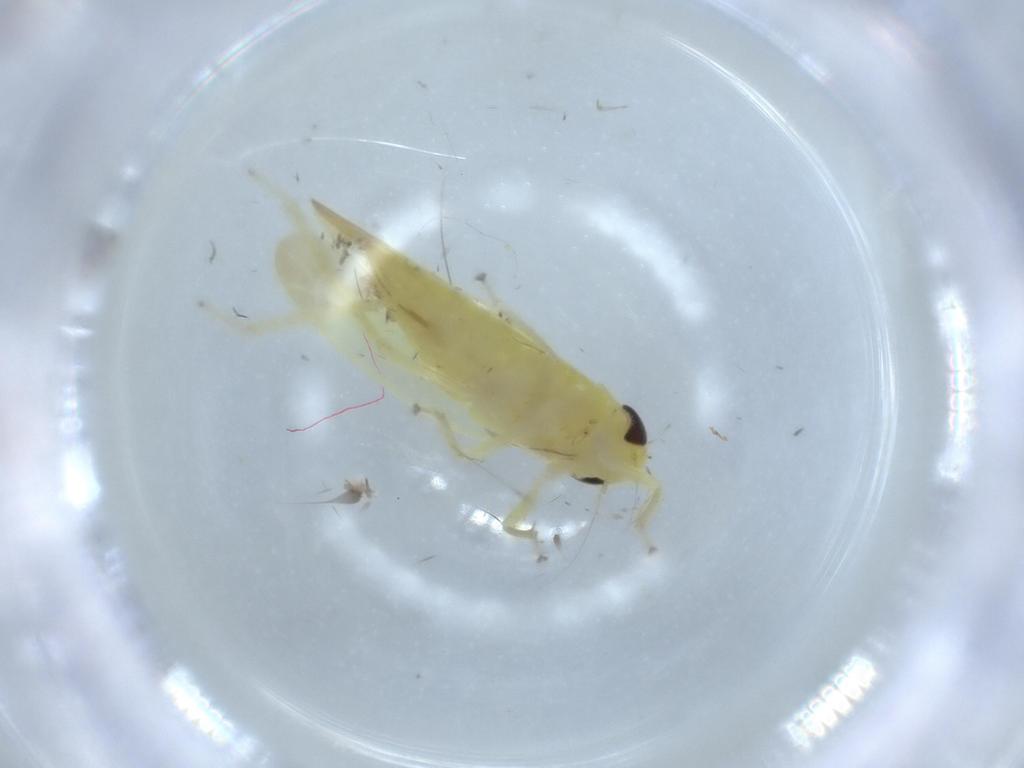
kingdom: Animalia
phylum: Arthropoda
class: Insecta
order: Hemiptera
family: Cicadellidae
